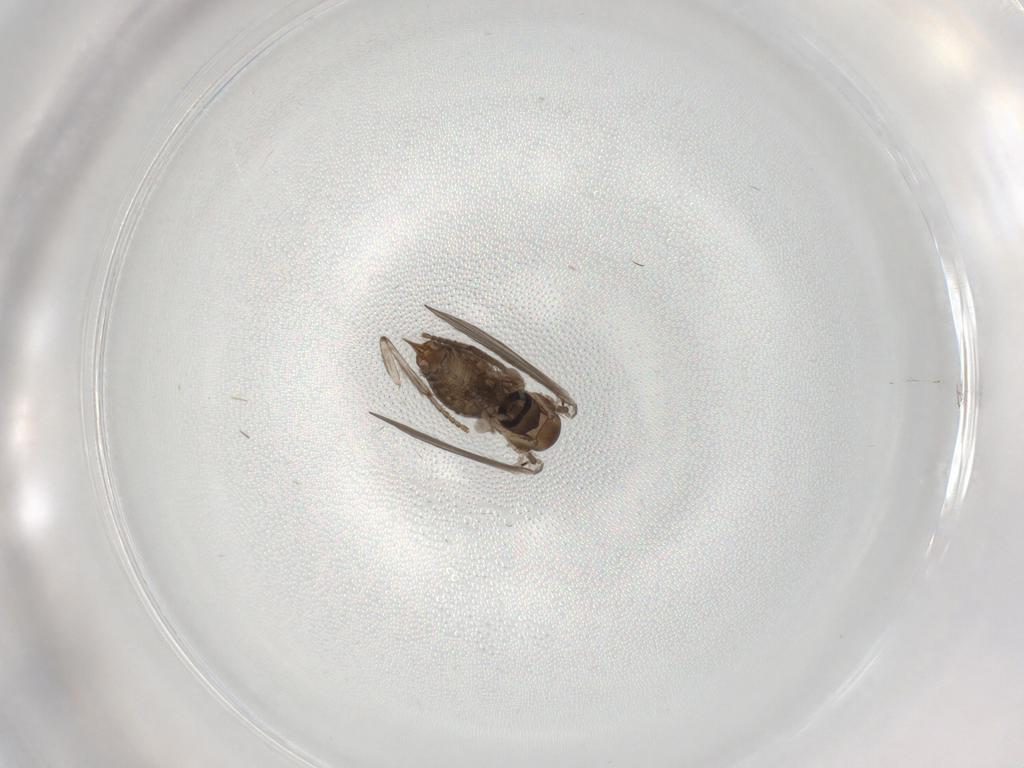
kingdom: Animalia
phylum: Arthropoda
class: Insecta
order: Diptera
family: Psychodidae
